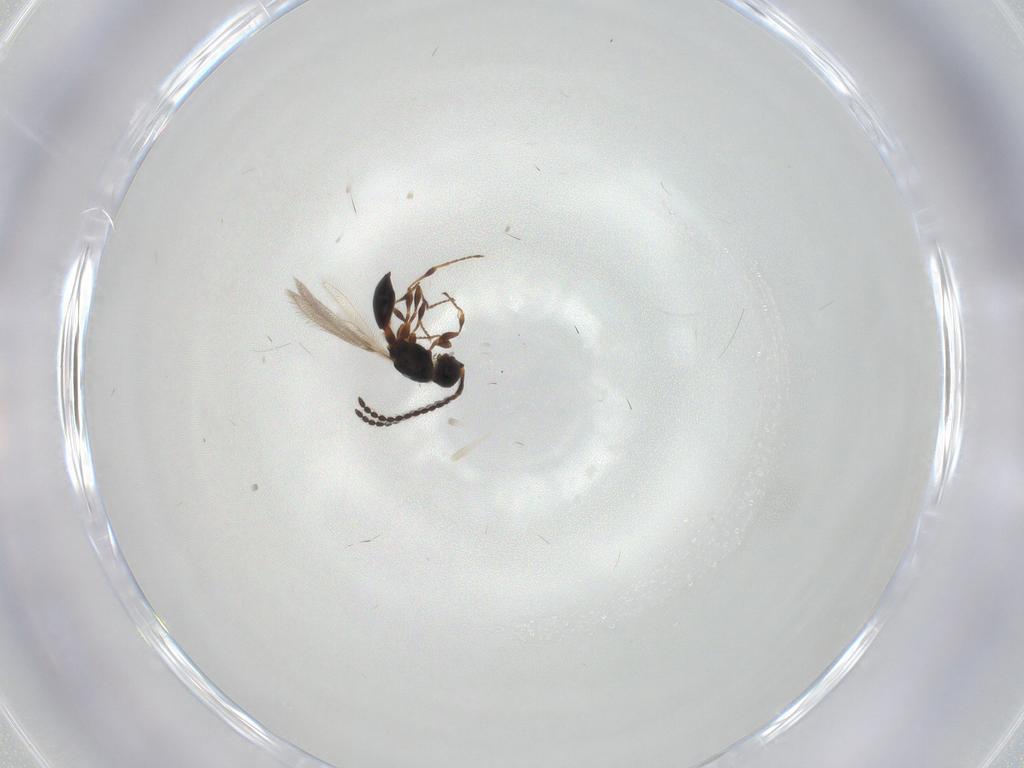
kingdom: Animalia
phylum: Arthropoda
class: Insecta
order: Hymenoptera
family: Diapriidae
